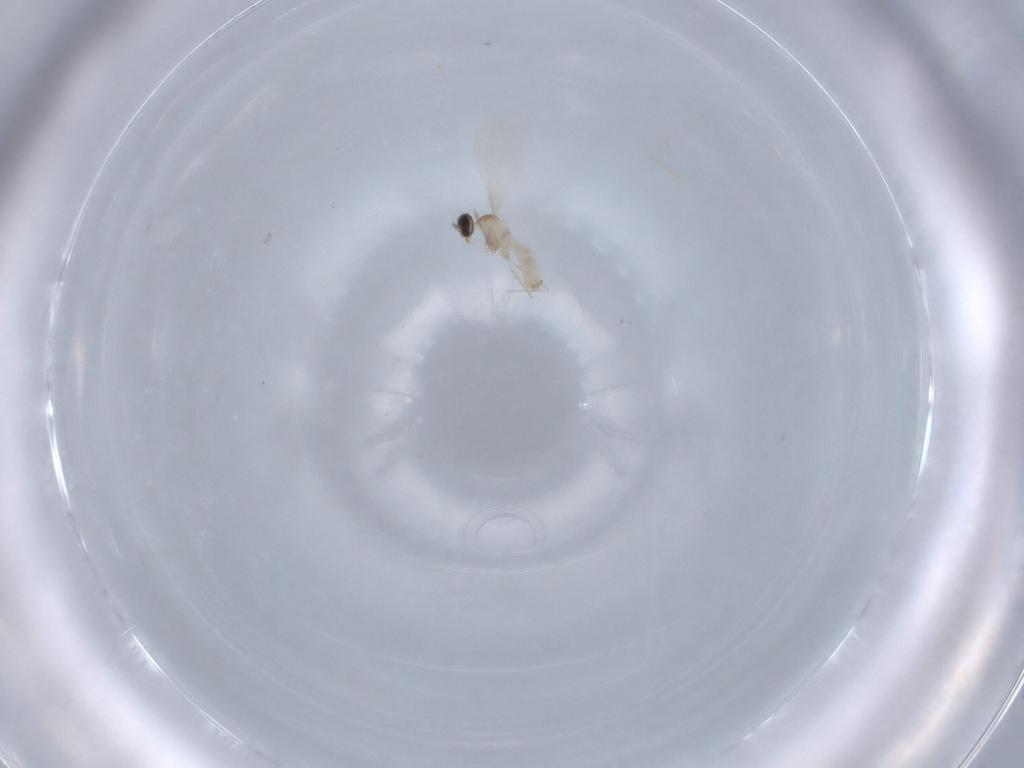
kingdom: Animalia
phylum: Arthropoda
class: Insecta
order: Diptera
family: Cecidomyiidae
